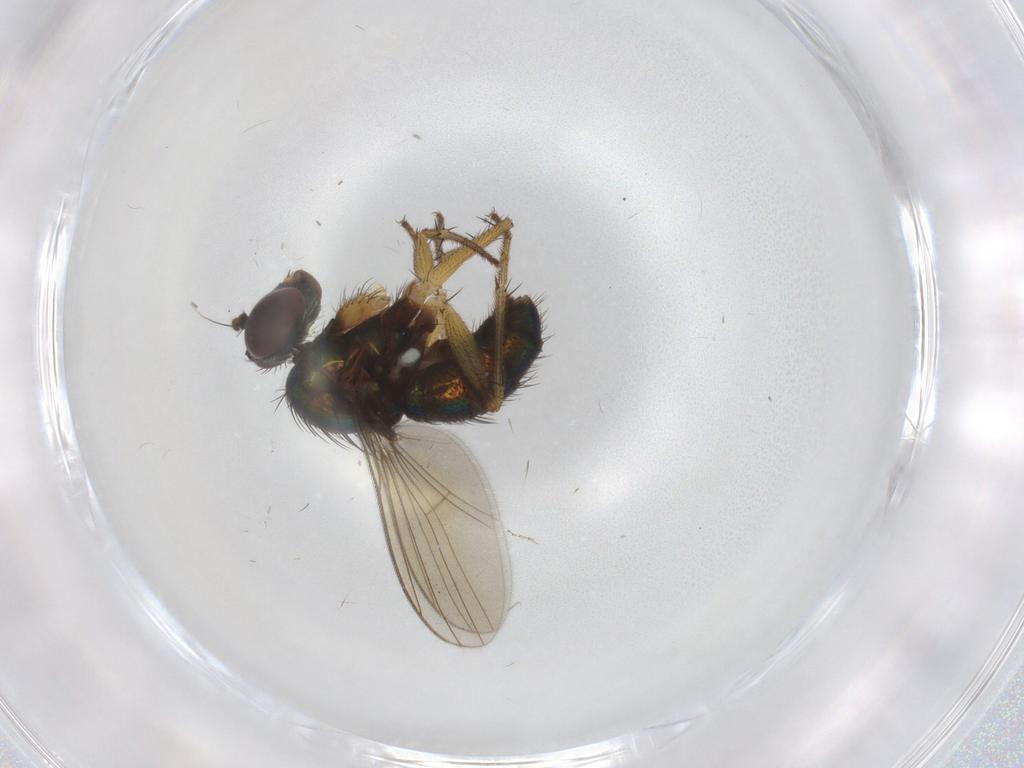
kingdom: Animalia
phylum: Arthropoda
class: Insecta
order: Diptera
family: Dolichopodidae
